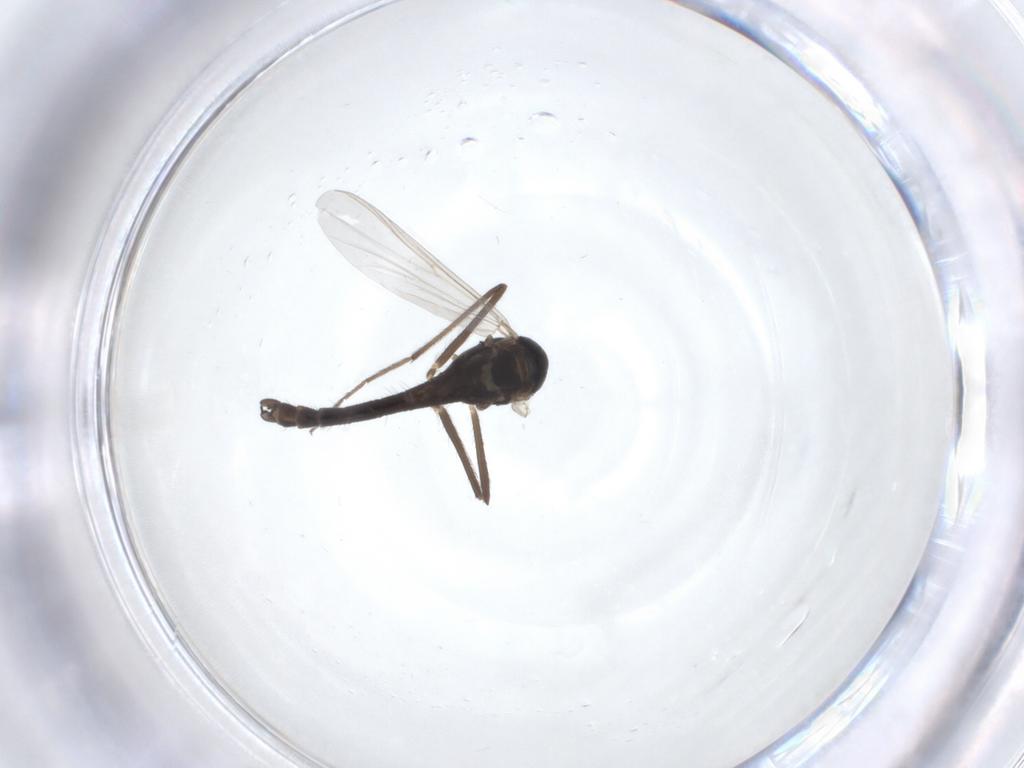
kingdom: Animalia
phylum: Arthropoda
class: Insecta
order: Diptera
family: Chironomidae
